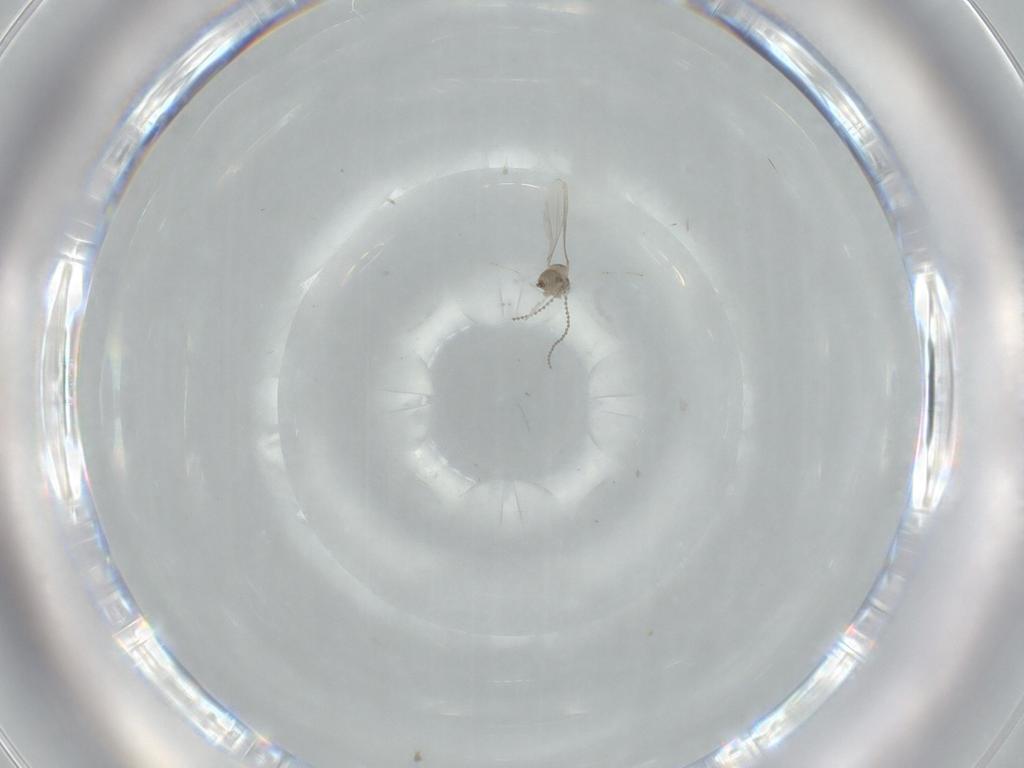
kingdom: Animalia
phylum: Arthropoda
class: Insecta
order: Diptera
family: Cecidomyiidae
